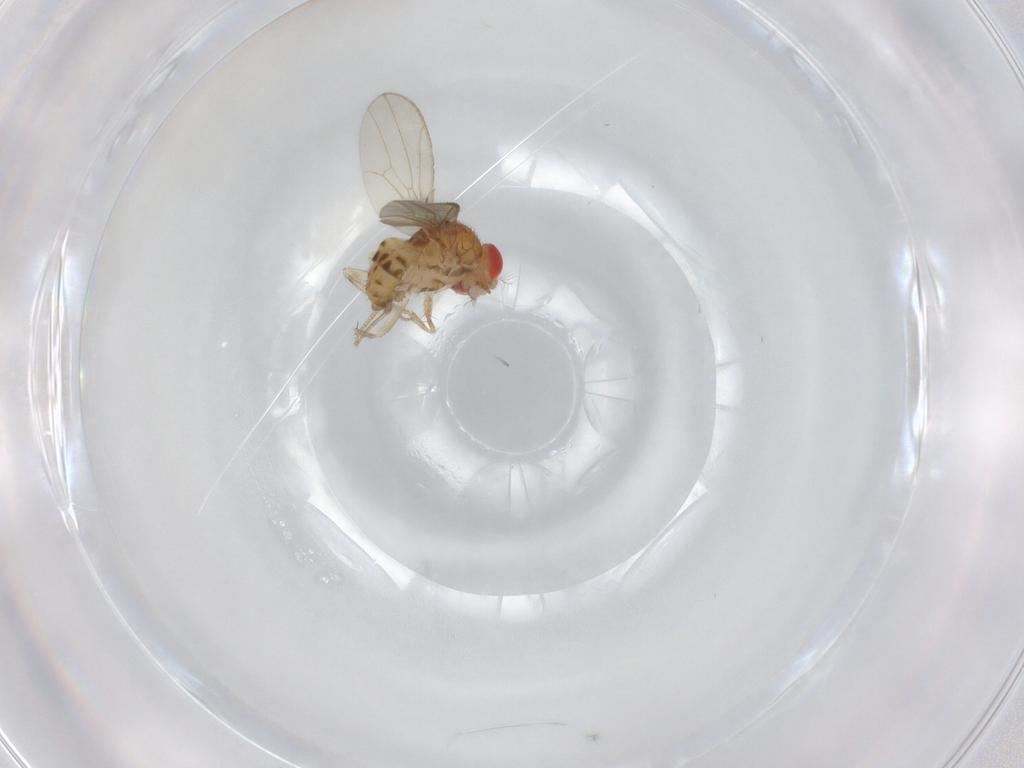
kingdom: Animalia
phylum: Arthropoda
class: Insecta
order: Diptera
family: Drosophilidae
